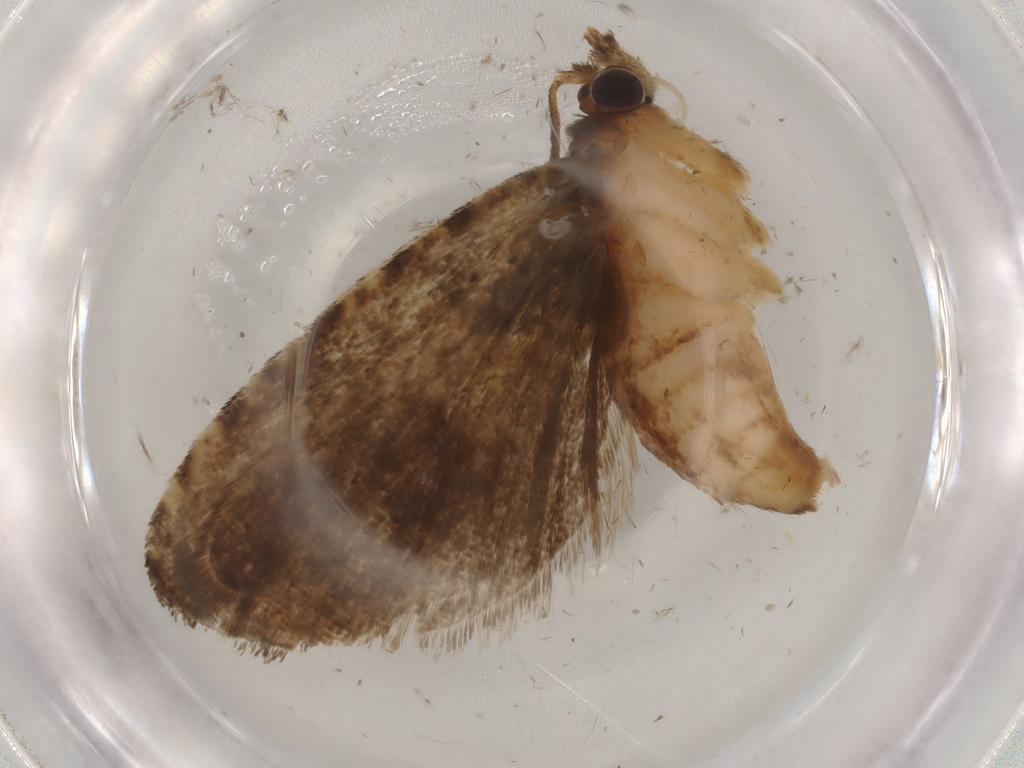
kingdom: Animalia
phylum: Arthropoda
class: Insecta
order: Lepidoptera
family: Tortricidae
